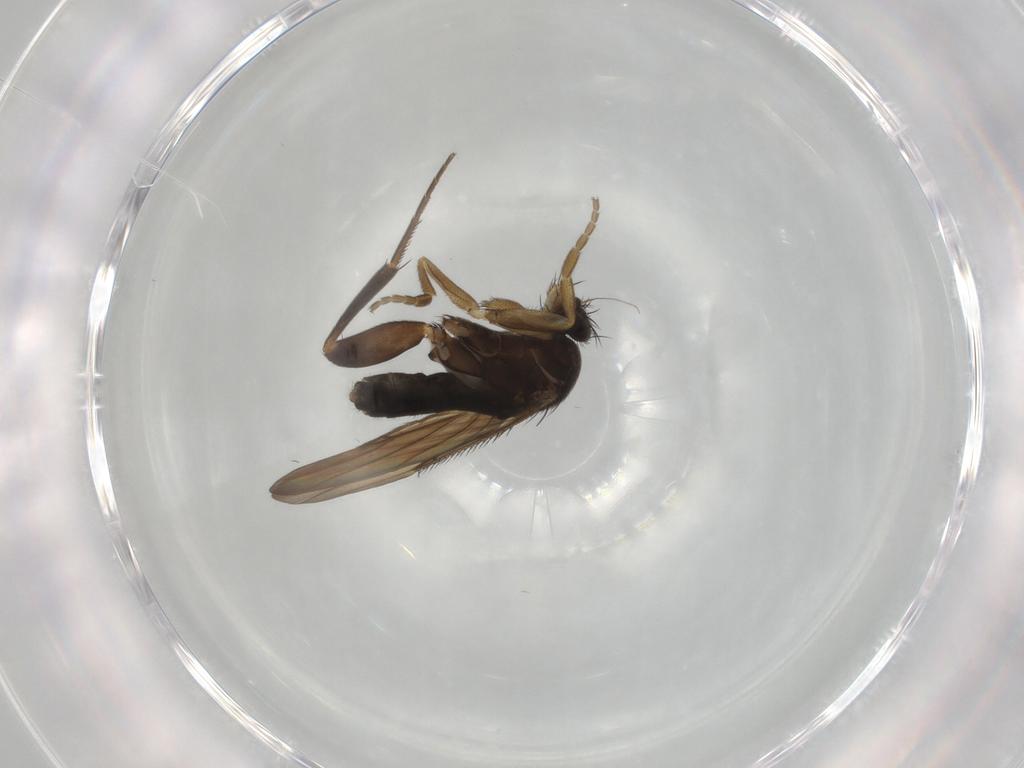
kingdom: Animalia
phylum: Arthropoda
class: Insecta
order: Diptera
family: Phoridae
